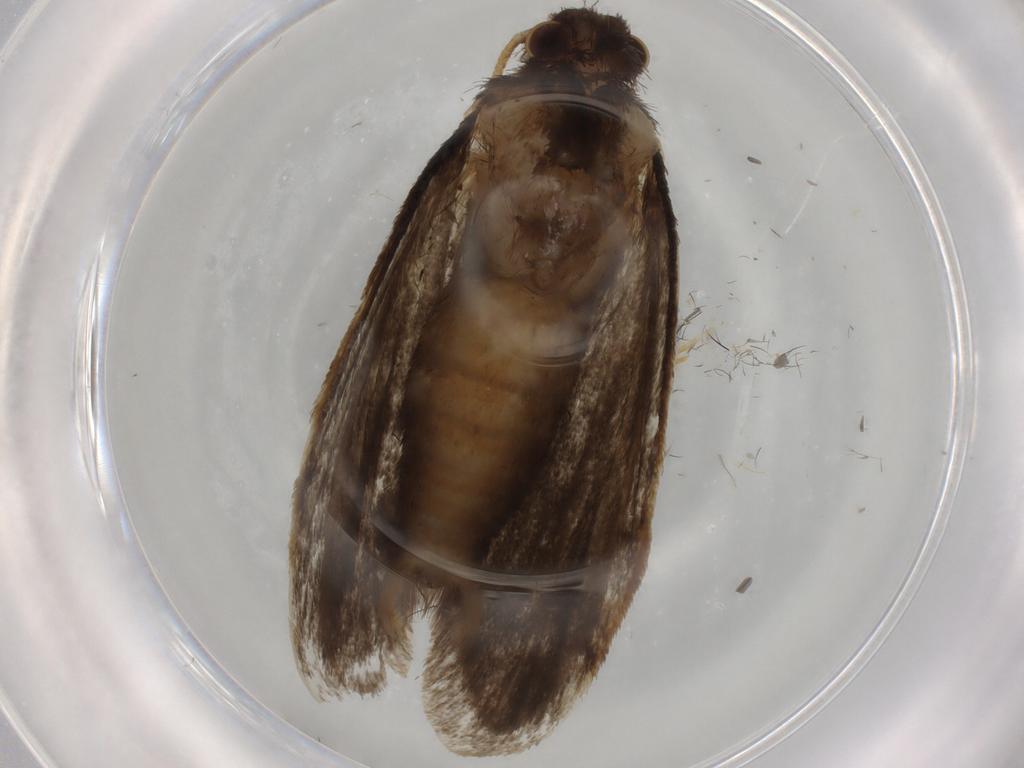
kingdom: Animalia
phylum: Arthropoda
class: Insecta
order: Lepidoptera
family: Tineidae
